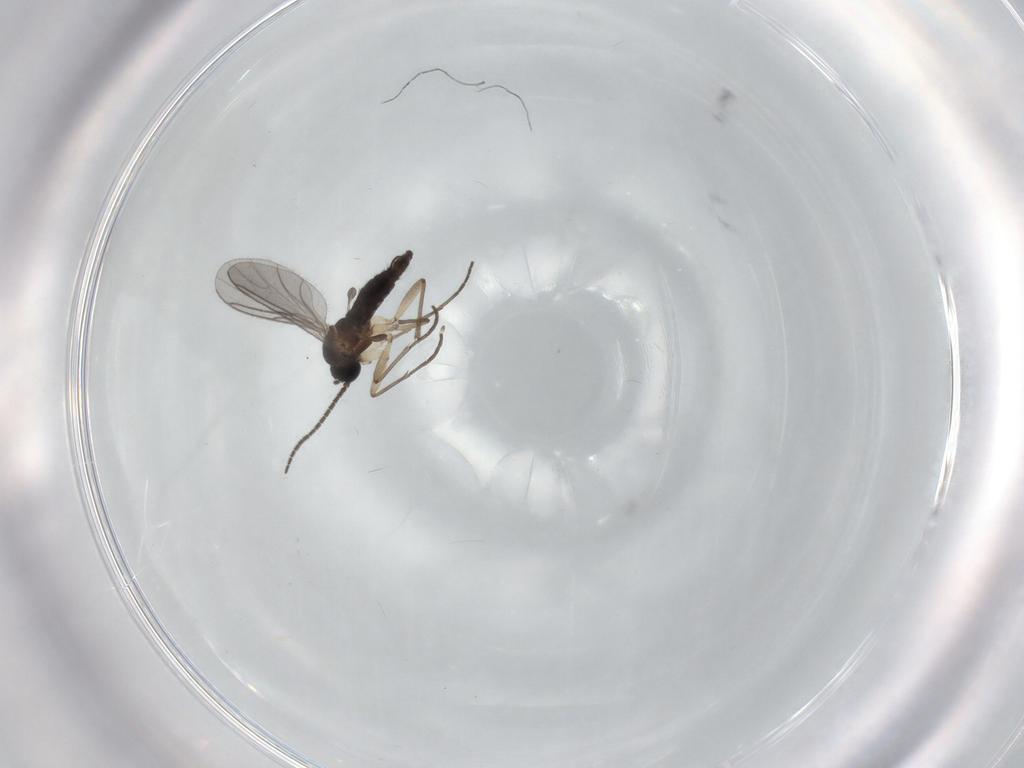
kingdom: Animalia
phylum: Arthropoda
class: Insecta
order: Diptera
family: Sciaridae
